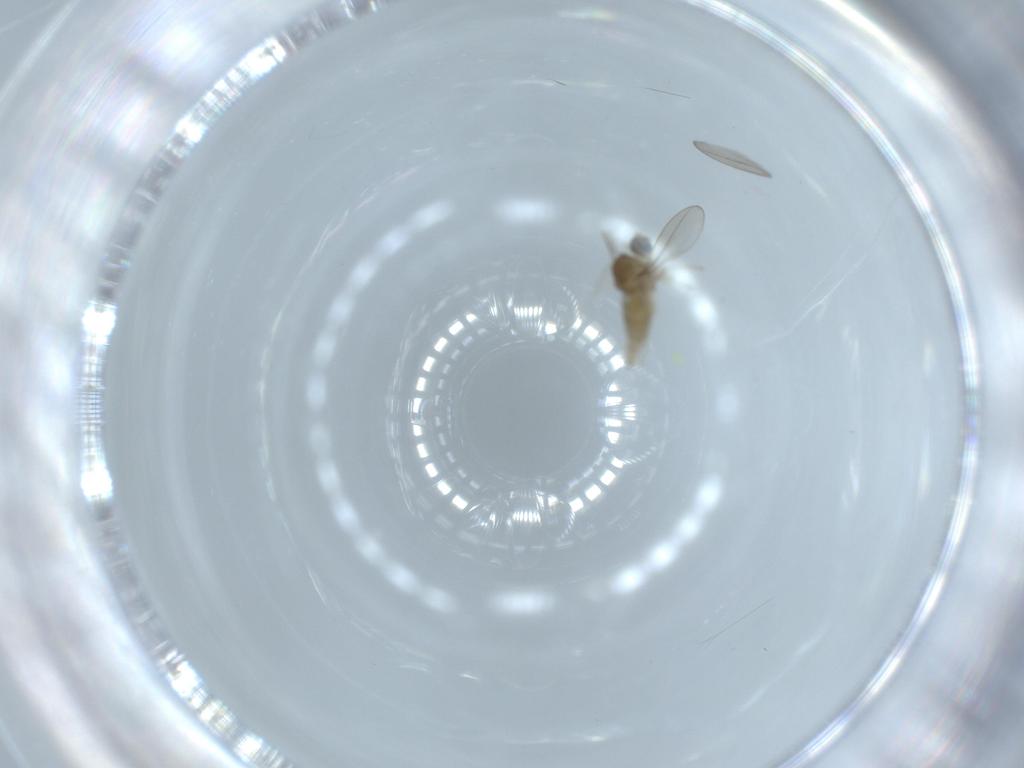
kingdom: Animalia
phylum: Arthropoda
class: Insecta
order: Diptera
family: Cecidomyiidae
